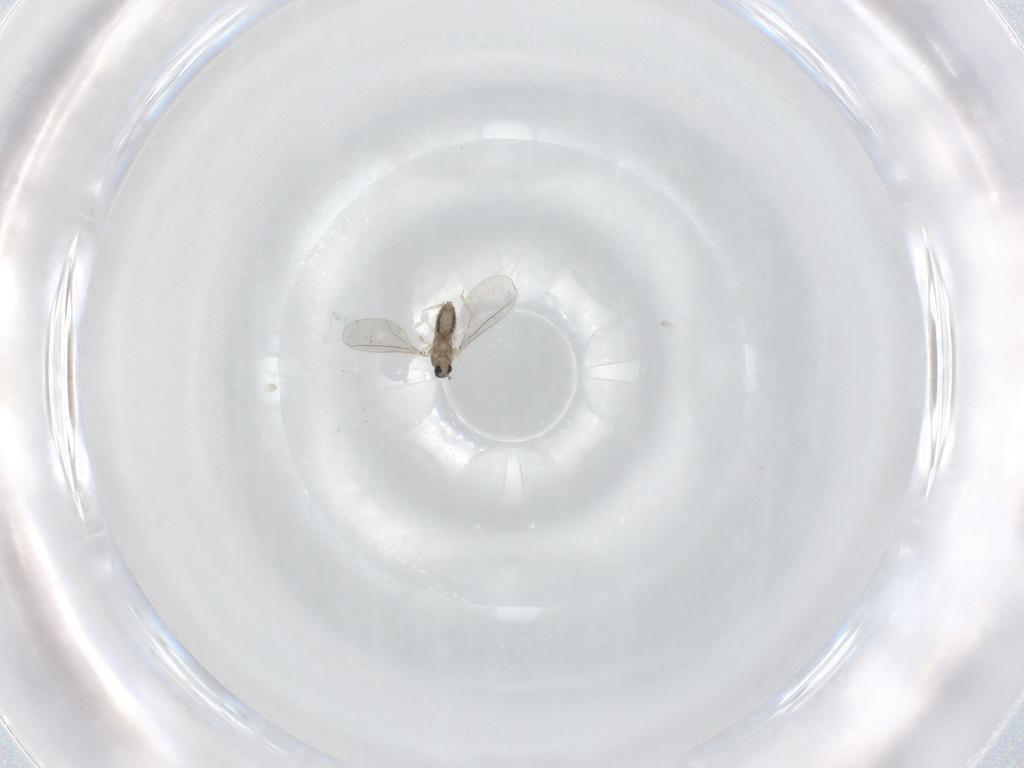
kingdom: Animalia
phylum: Arthropoda
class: Insecta
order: Diptera
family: Cecidomyiidae
